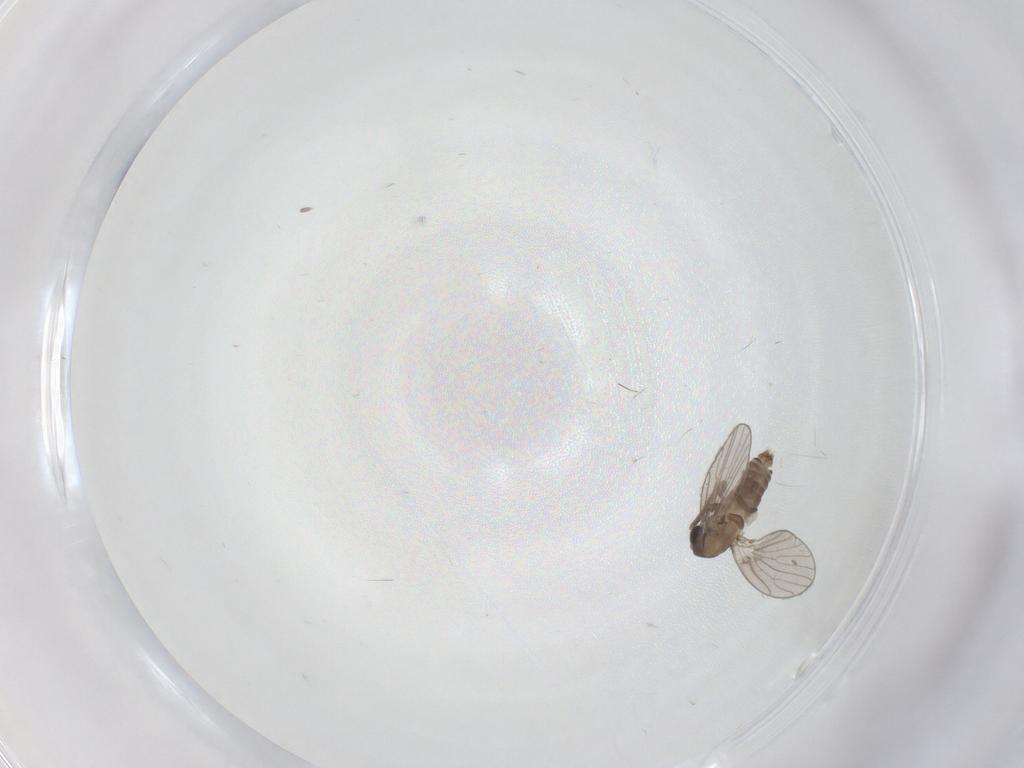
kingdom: Animalia
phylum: Arthropoda
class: Insecta
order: Diptera
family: Psychodidae
